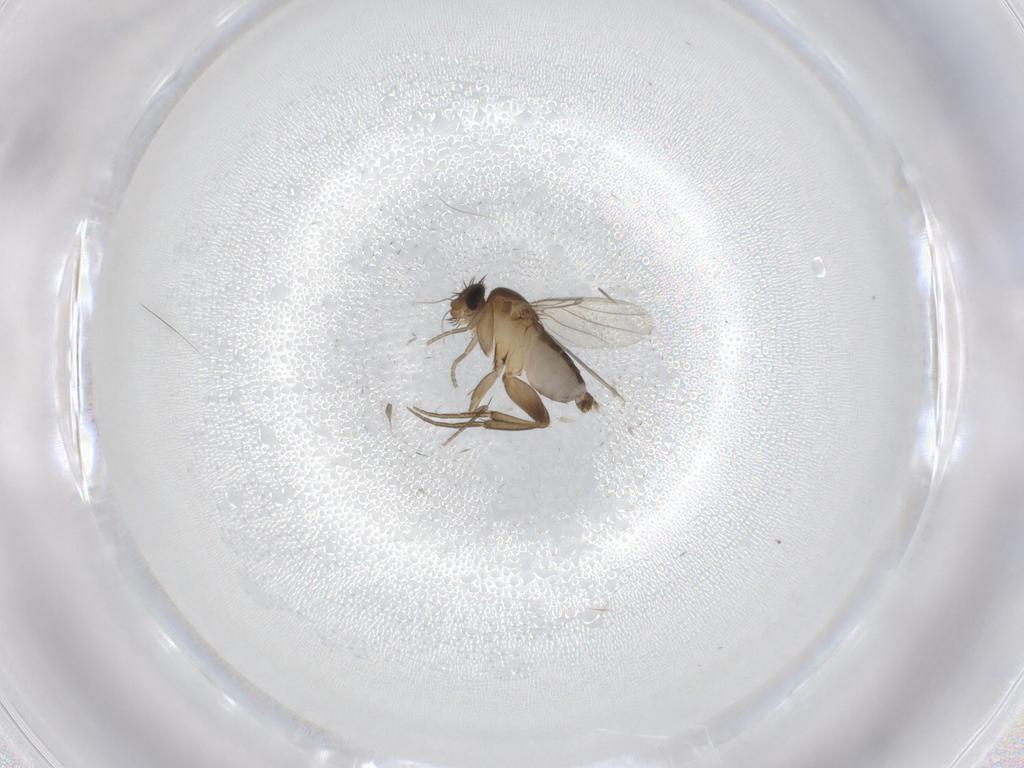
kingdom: Animalia
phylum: Arthropoda
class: Insecta
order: Diptera
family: Phoridae
